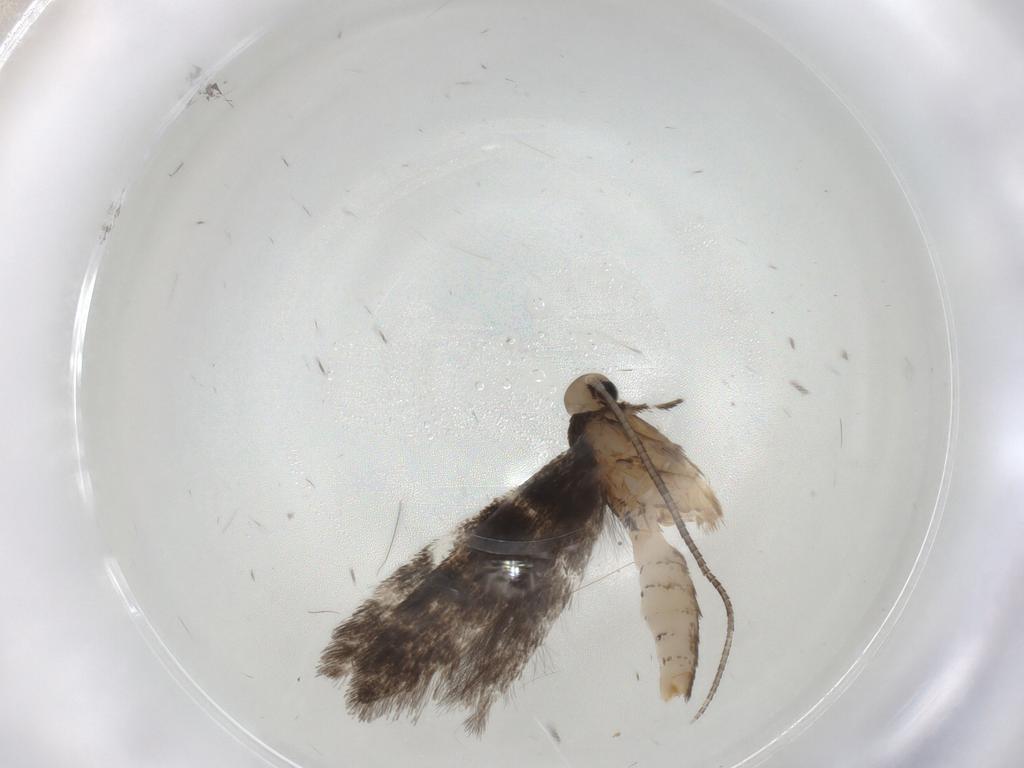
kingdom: Animalia
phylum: Arthropoda
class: Insecta
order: Lepidoptera
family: Gracillariidae
